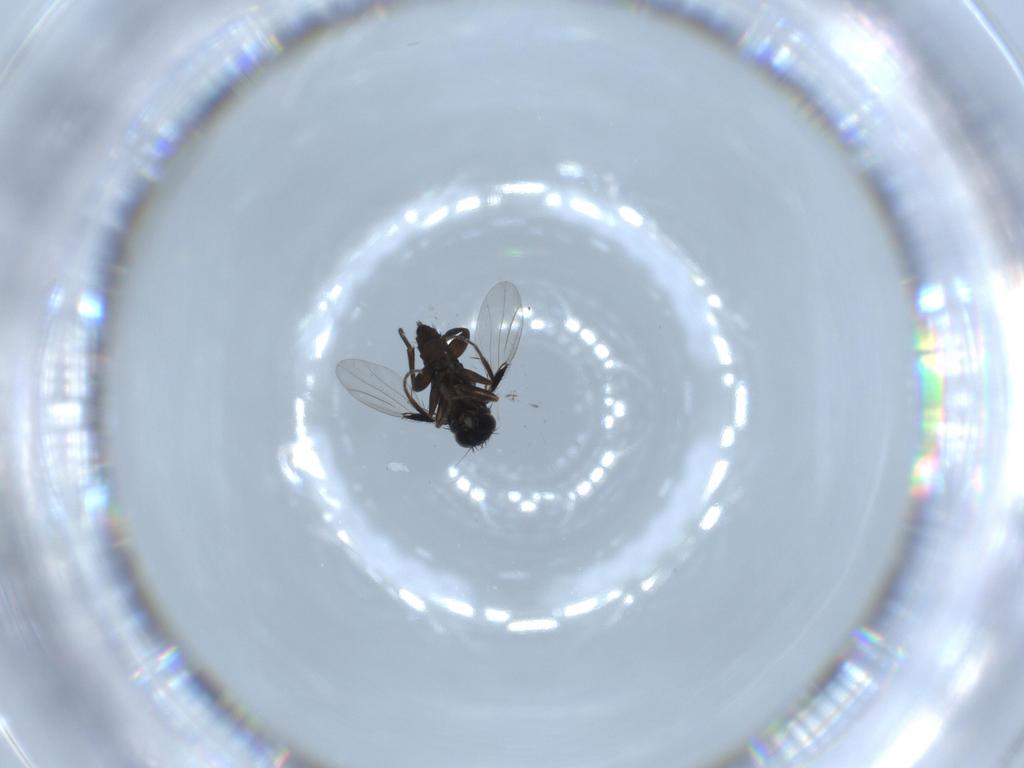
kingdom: Animalia
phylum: Arthropoda
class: Insecta
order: Diptera
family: Phoridae
